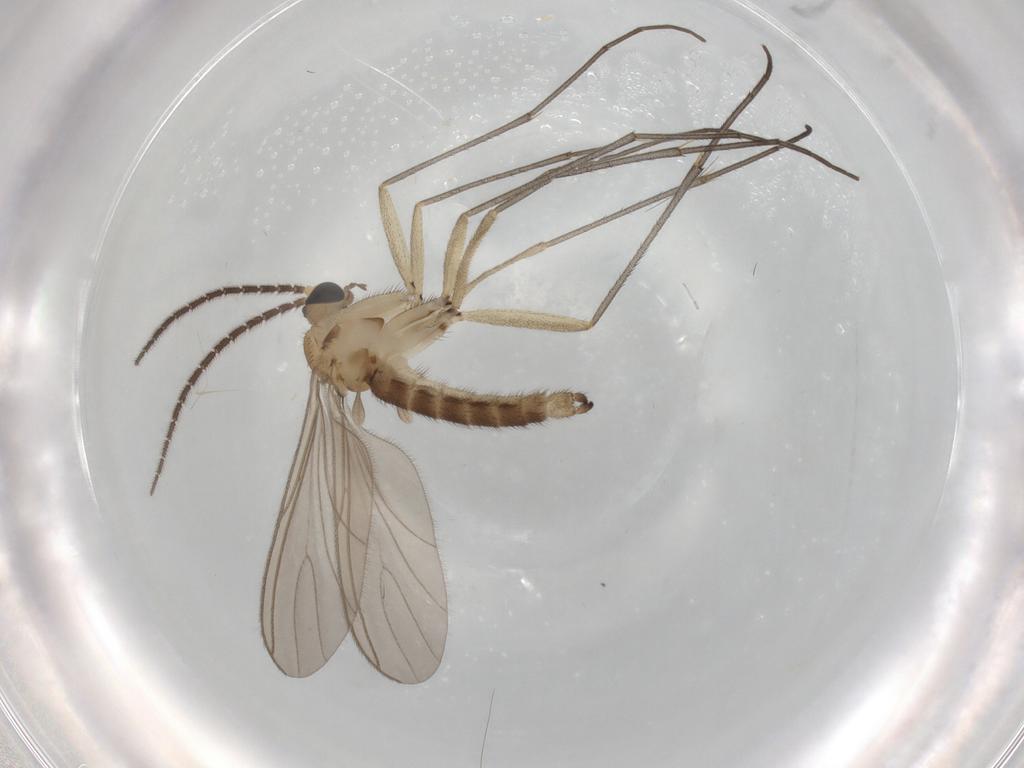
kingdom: Animalia
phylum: Arthropoda
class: Insecta
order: Diptera
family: Sciaridae
